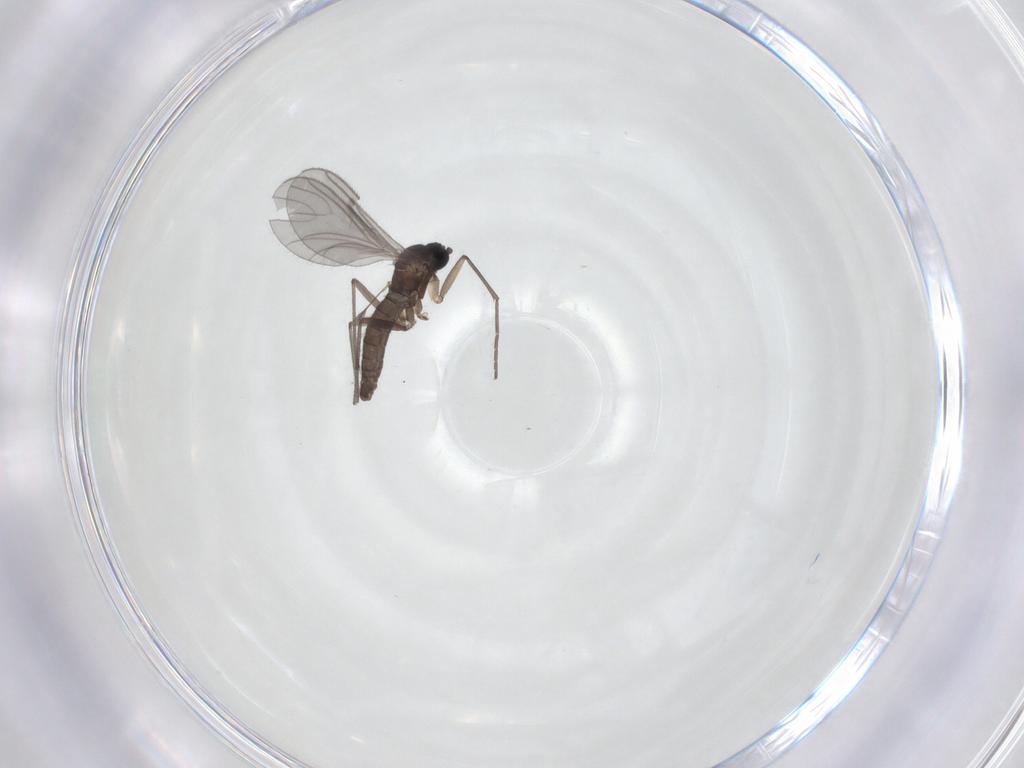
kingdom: Animalia
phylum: Arthropoda
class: Insecta
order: Diptera
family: Sciaridae
